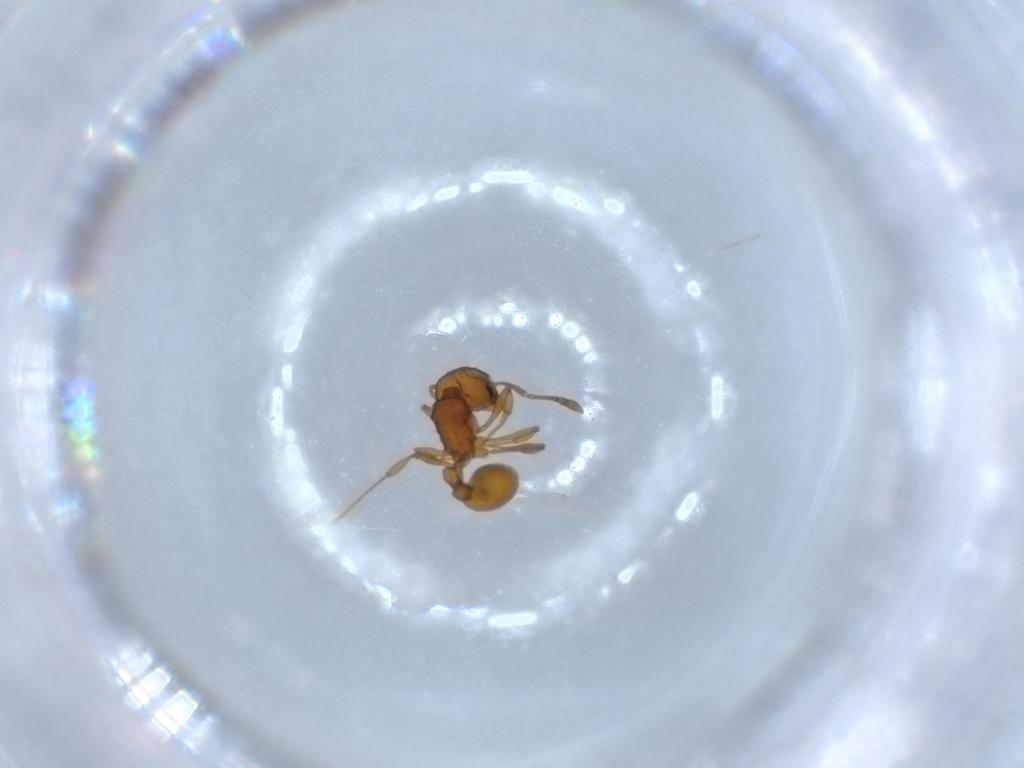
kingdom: Animalia
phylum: Arthropoda
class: Insecta
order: Hymenoptera
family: Formicidae
